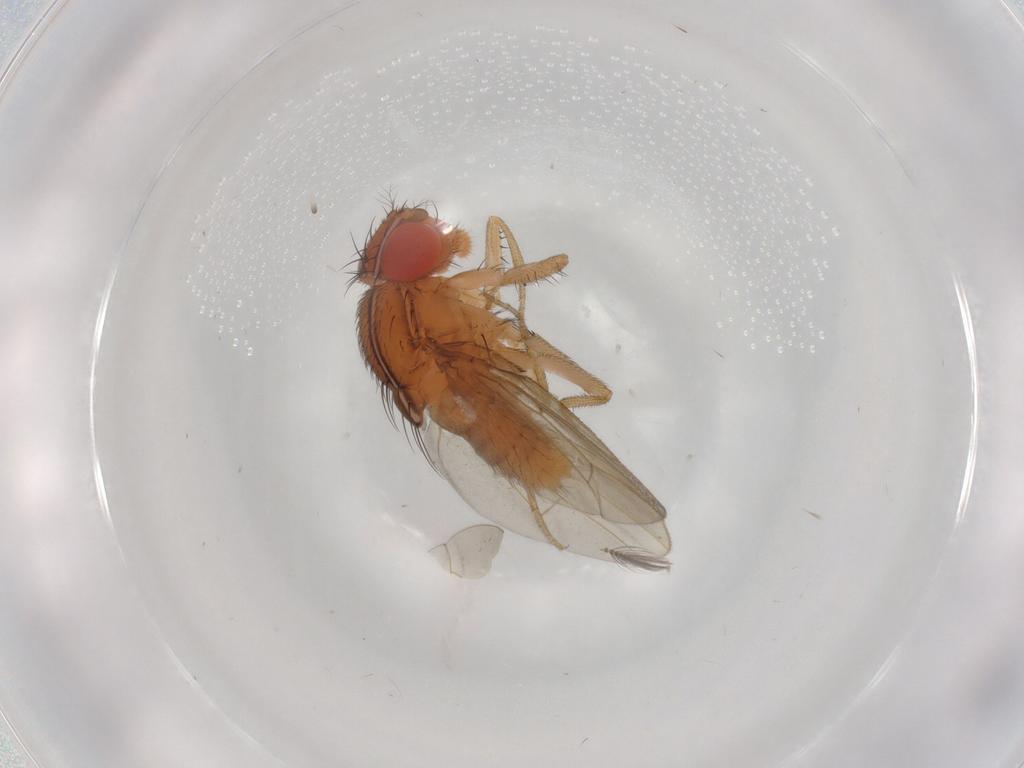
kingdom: Animalia
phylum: Arthropoda
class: Insecta
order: Diptera
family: Drosophilidae
